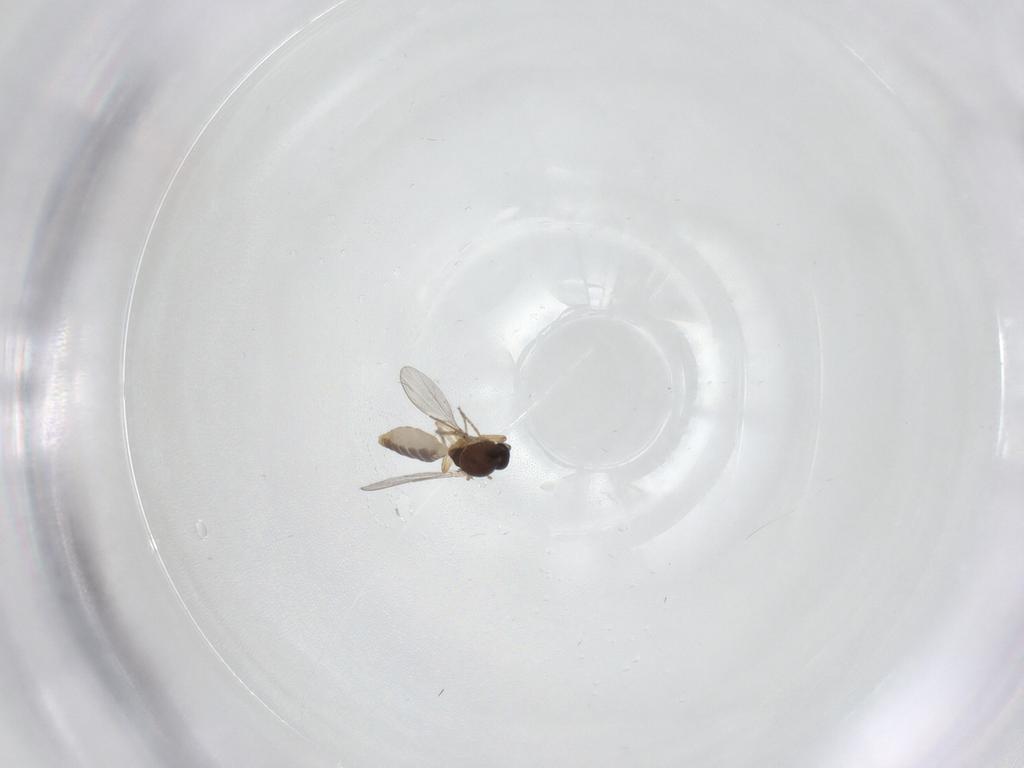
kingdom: Animalia
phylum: Arthropoda
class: Insecta
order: Diptera
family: Ceratopogonidae
